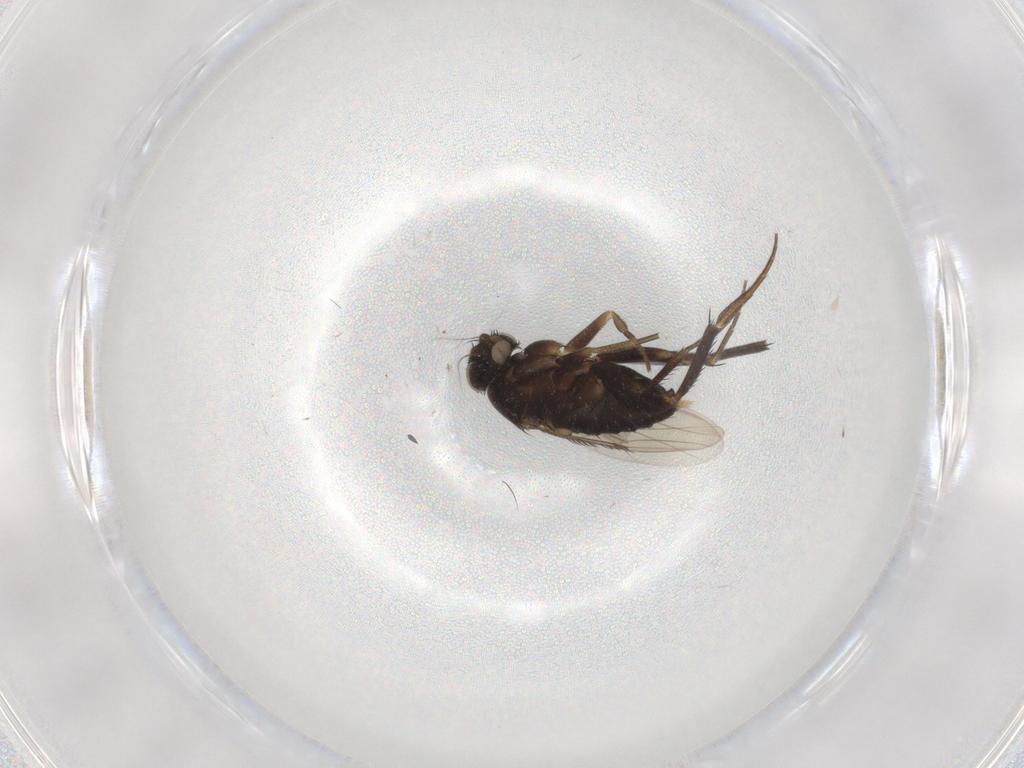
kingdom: Animalia
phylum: Arthropoda
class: Insecta
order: Diptera
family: Phoridae
